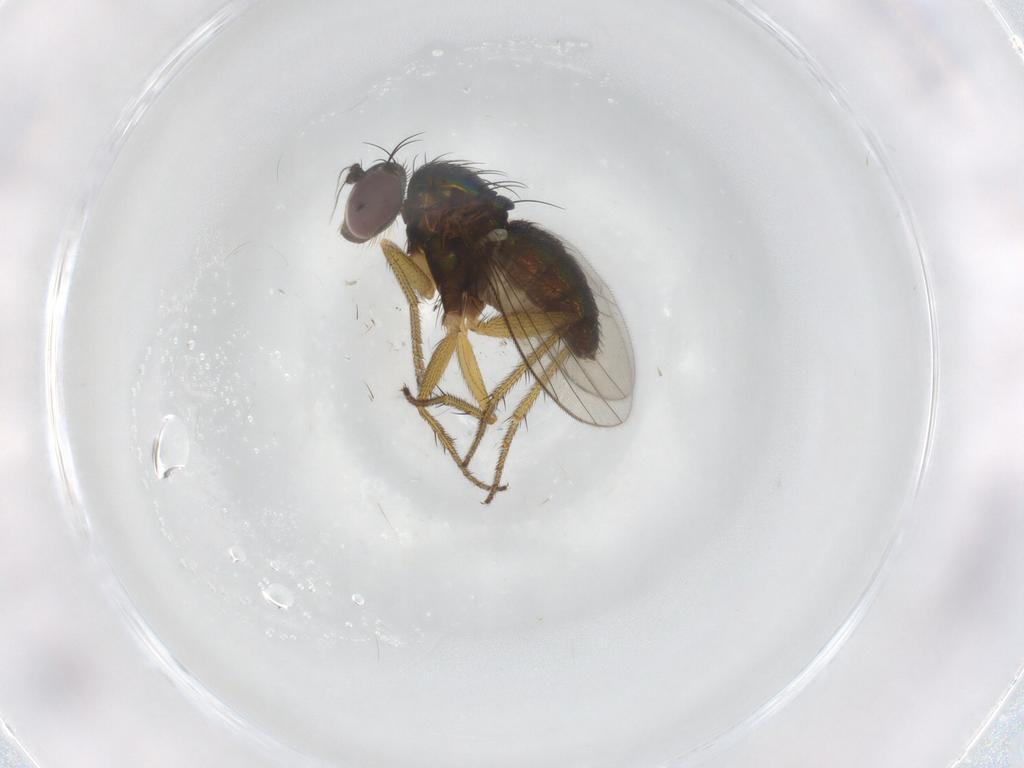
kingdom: Animalia
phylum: Arthropoda
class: Insecta
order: Diptera
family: Dolichopodidae
